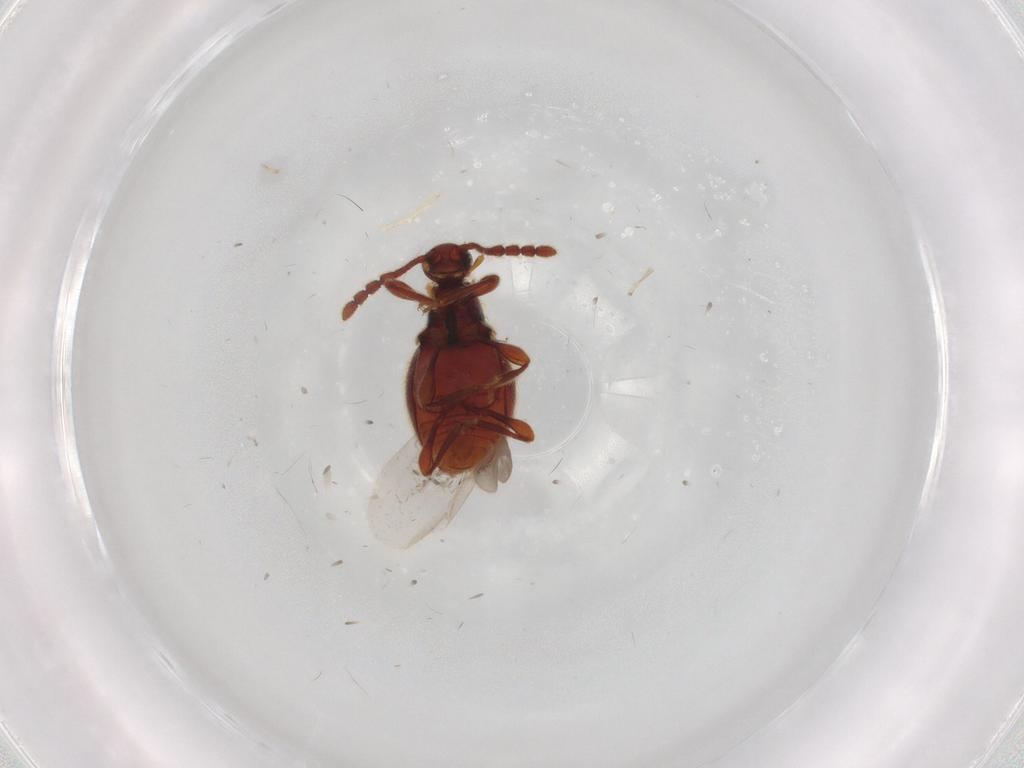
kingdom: Animalia
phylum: Arthropoda
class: Insecta
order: Coleoptera
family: Staphylinidae
